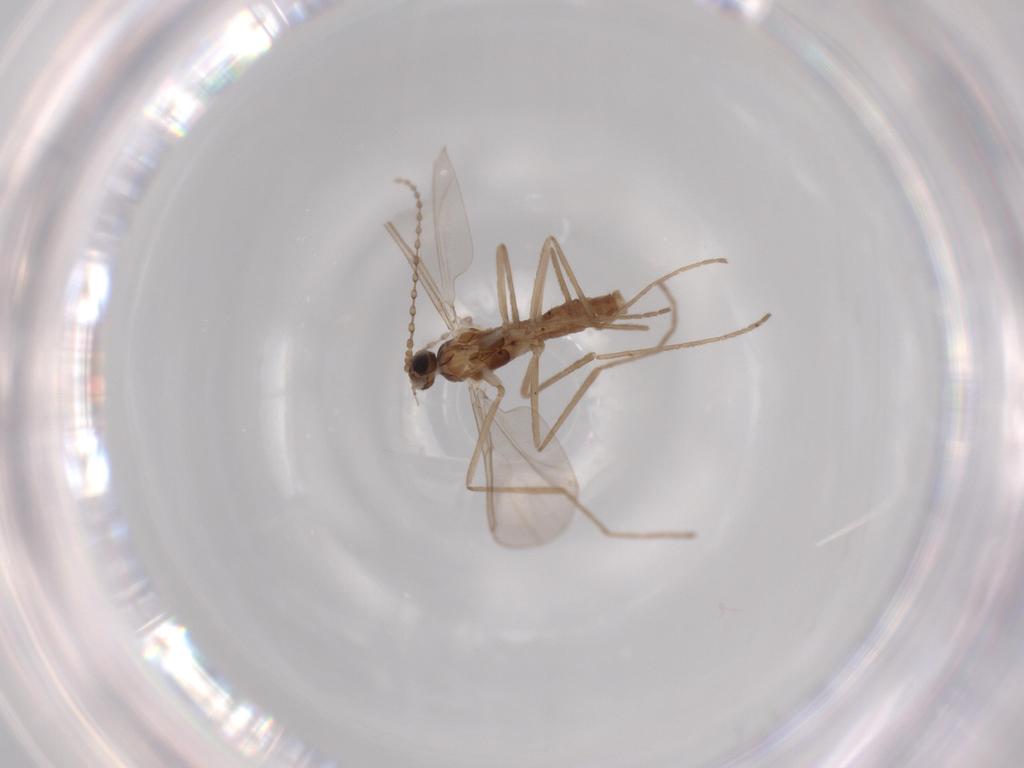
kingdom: Animalia
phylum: Arthropoda
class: Insecta
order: Diptera
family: Cecidomyiidae
